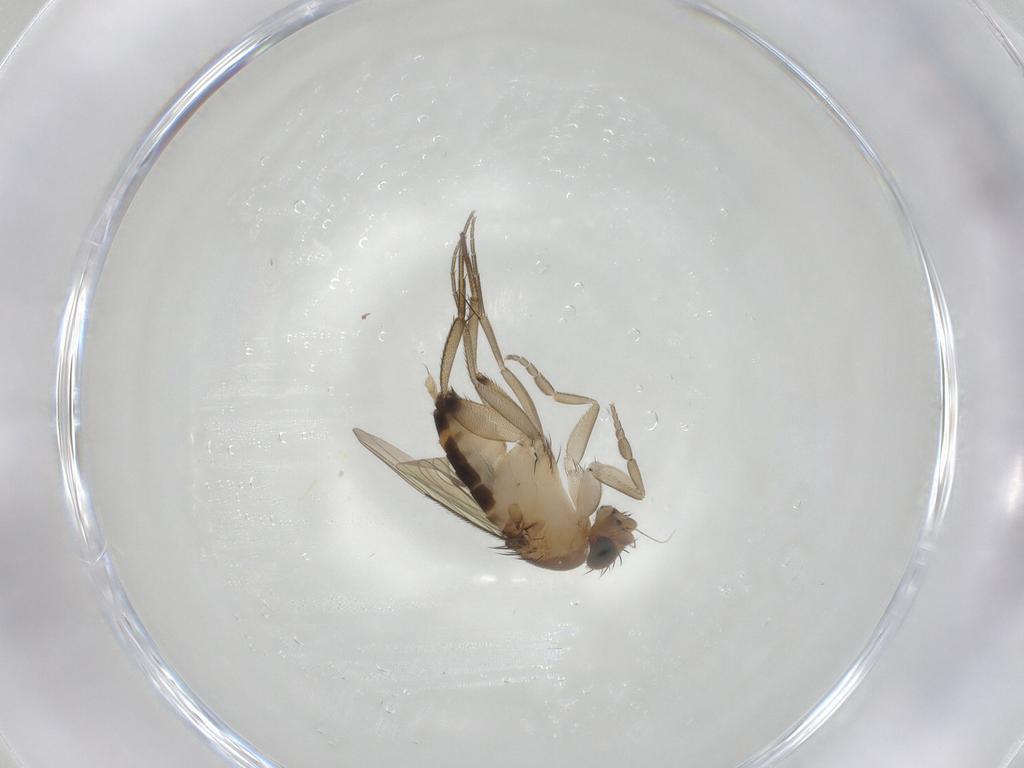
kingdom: Animalia
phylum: Arthropoda
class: Insecta
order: Diptera
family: Phoridae
